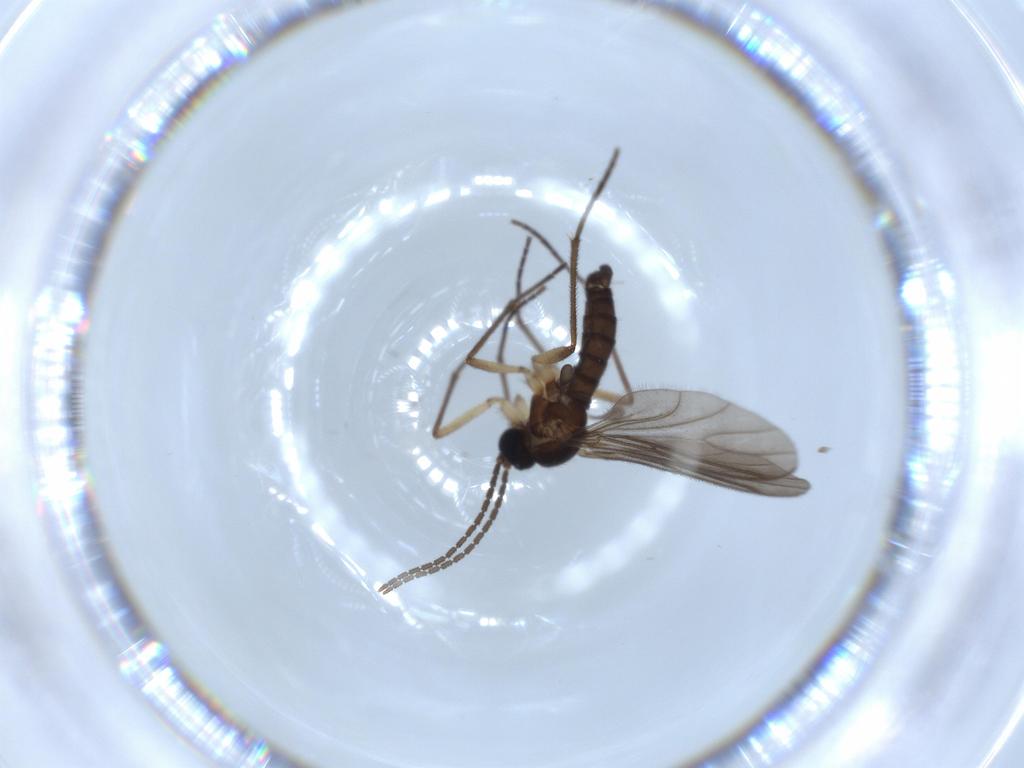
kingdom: Animalia
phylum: Arthropoda
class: Insecta
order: Diptera
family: Sciaridae
